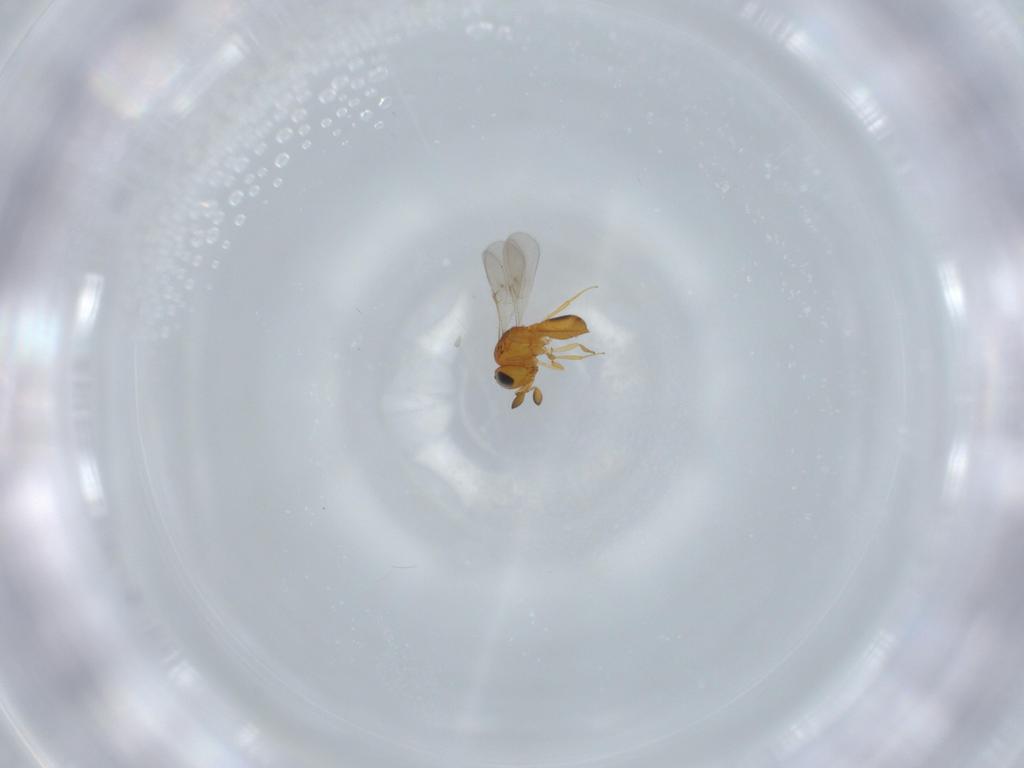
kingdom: Animalia
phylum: Arthropoda
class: Insecta
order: Hymenoptera
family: Scelionidae
